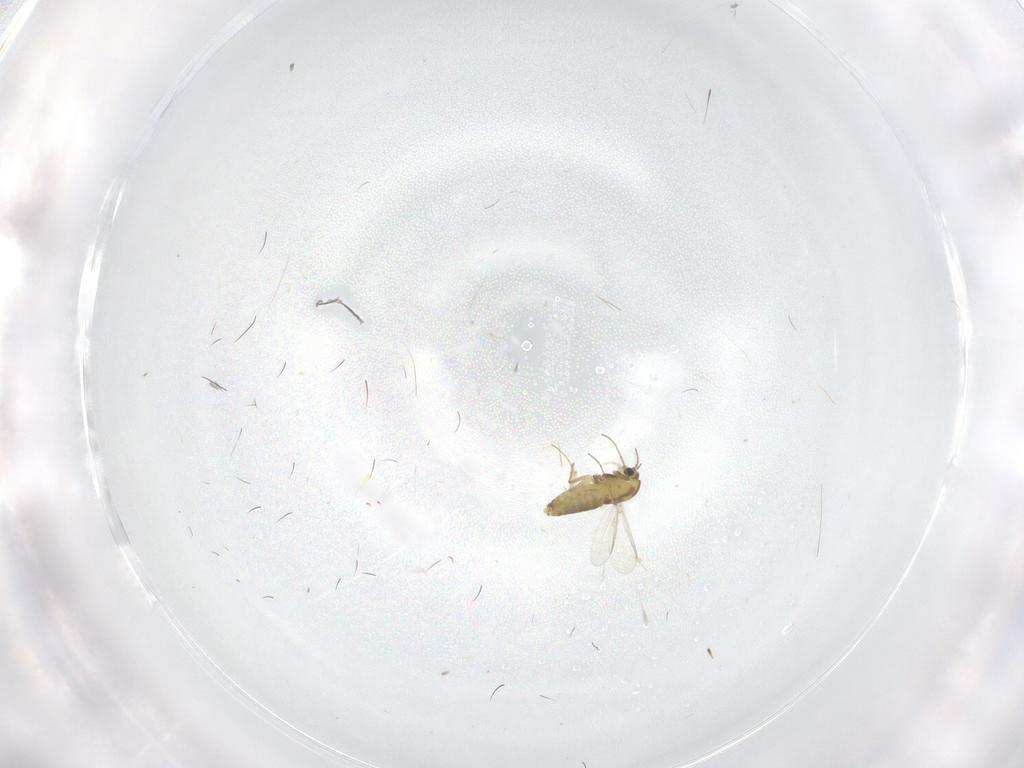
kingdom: Animalia
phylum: Arthropoda
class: Insecta
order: Diptera
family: Chironomidae
